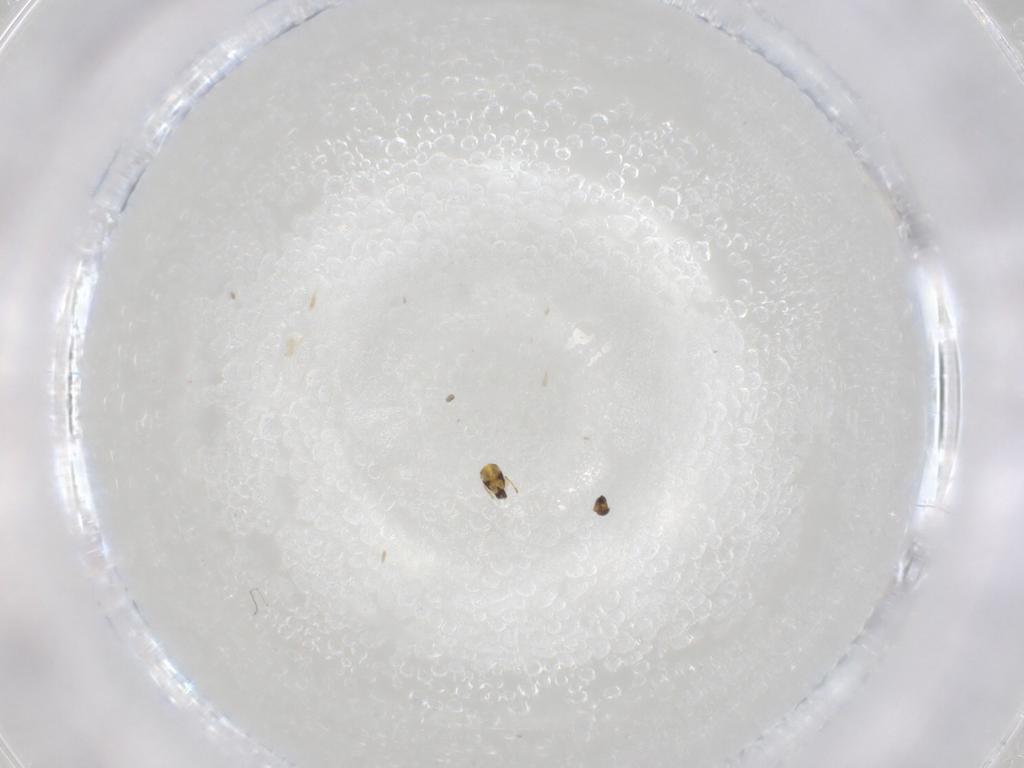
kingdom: Animalia
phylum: Arthropoda
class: Insecta
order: Hymenoptera
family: Trichogrammatidae
